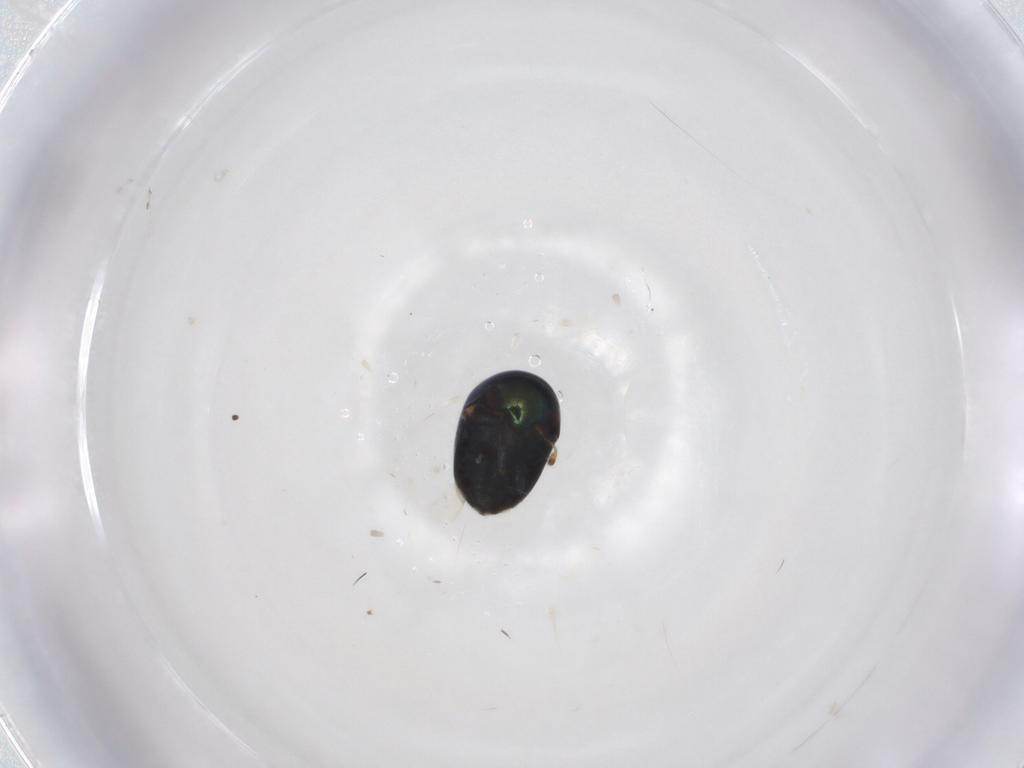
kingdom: Animalia
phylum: Arthropoda
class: Insecta
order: Coleoptera
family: Cybocephalidae
